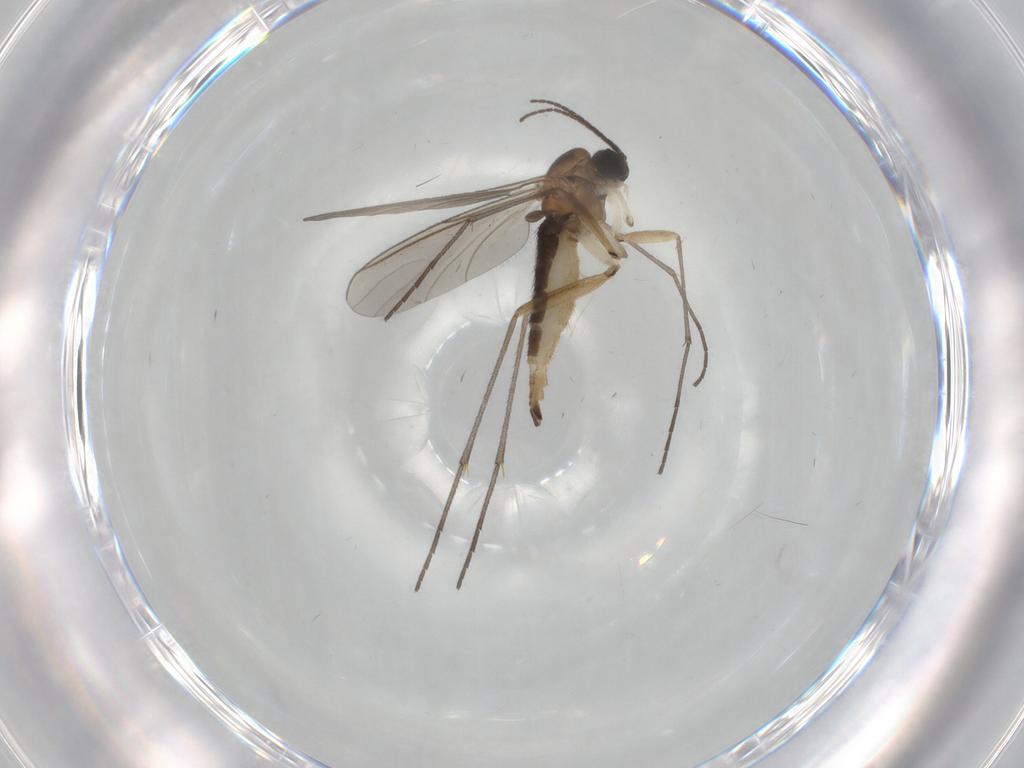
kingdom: Animalia
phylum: Arthropoda
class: Insecta
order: Diptera
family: Sciaridae
